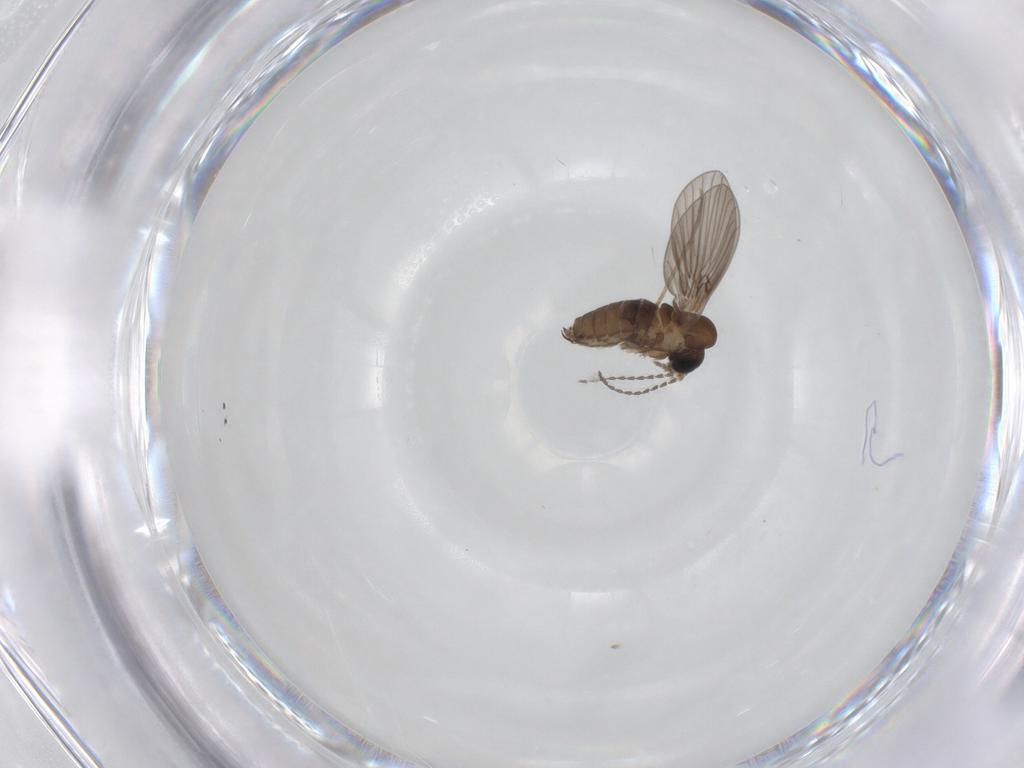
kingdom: Animalia
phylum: Arthropoda
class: Insecta
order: Diptera
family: Psychodidae
